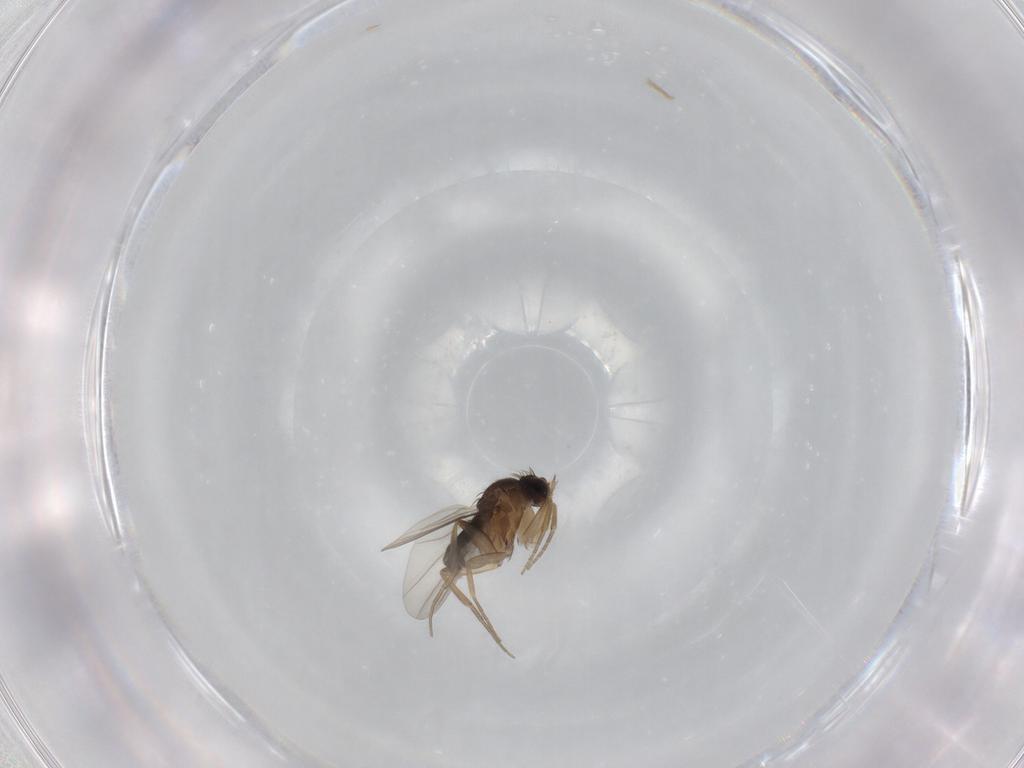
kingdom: Animalia
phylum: Arthropoda
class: Insecta
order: Diptera
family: Phoridae
